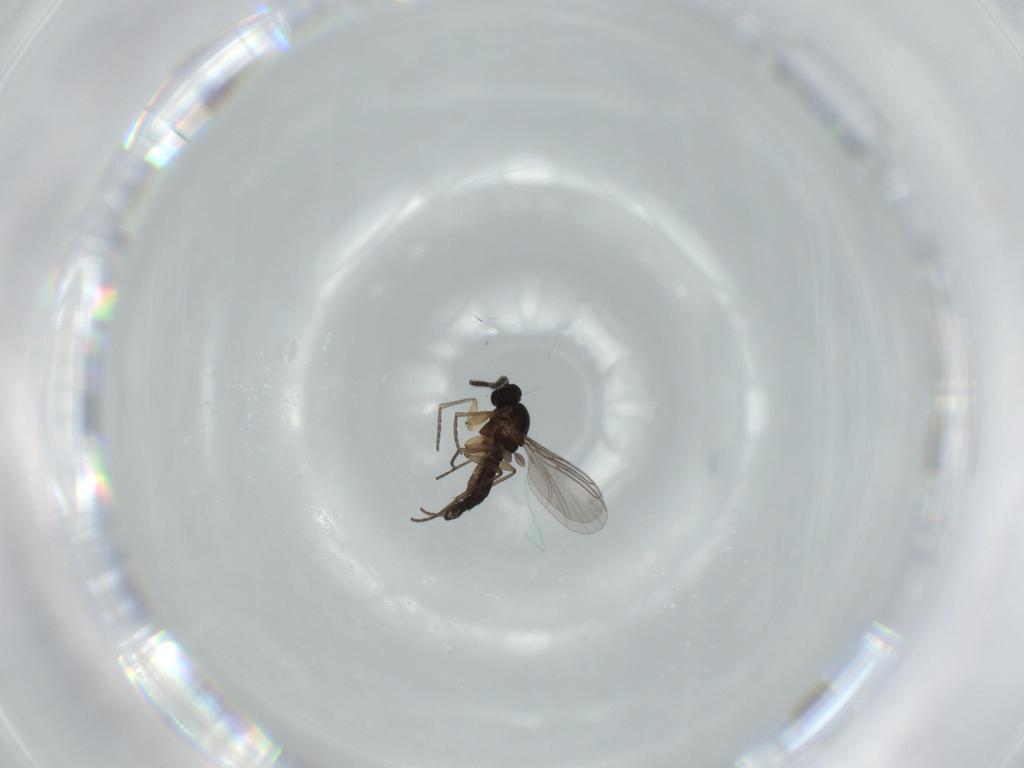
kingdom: Animalia
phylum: Arthropoda
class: Insecta
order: Diptera
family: Sciaridae
